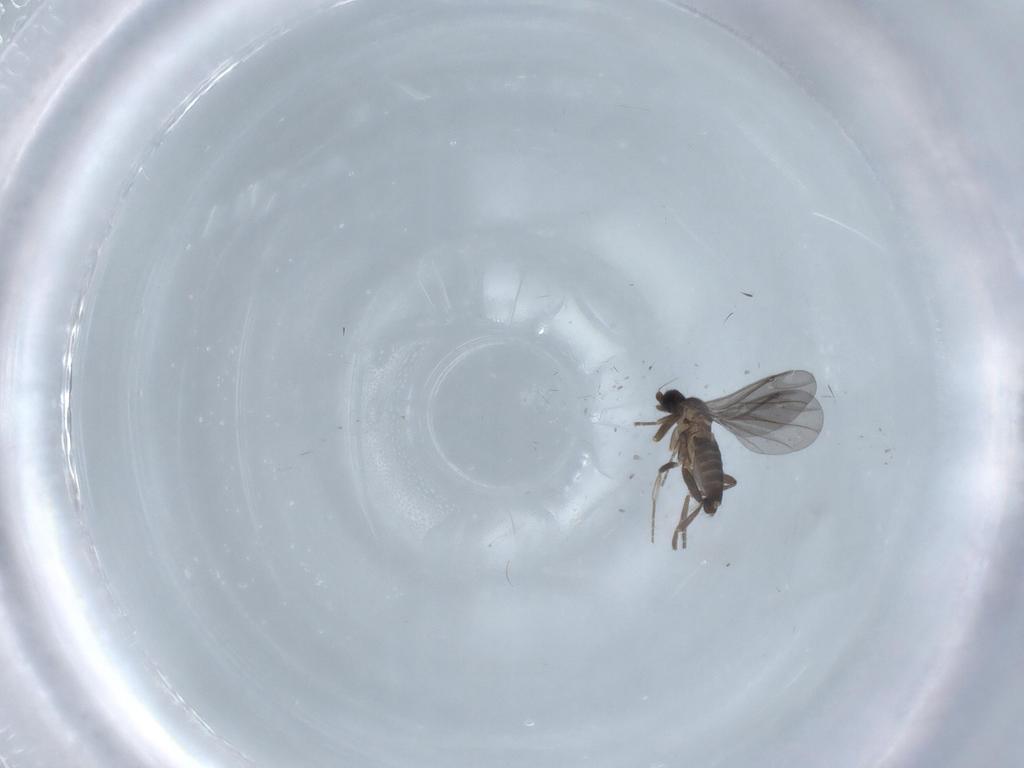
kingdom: Animalia
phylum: Arthropoda
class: Insecta
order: Diptera
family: Phoridae
